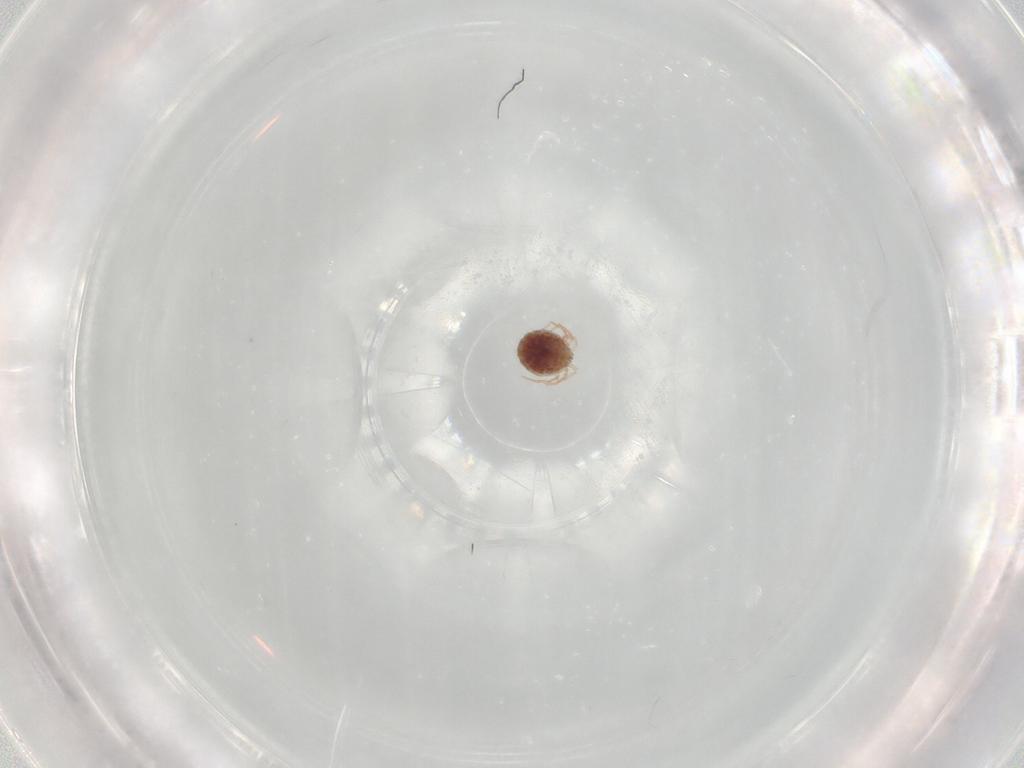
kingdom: Animalia
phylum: Arthropoda
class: Arachnida
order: Trombidiformes
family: Lebertiidae
